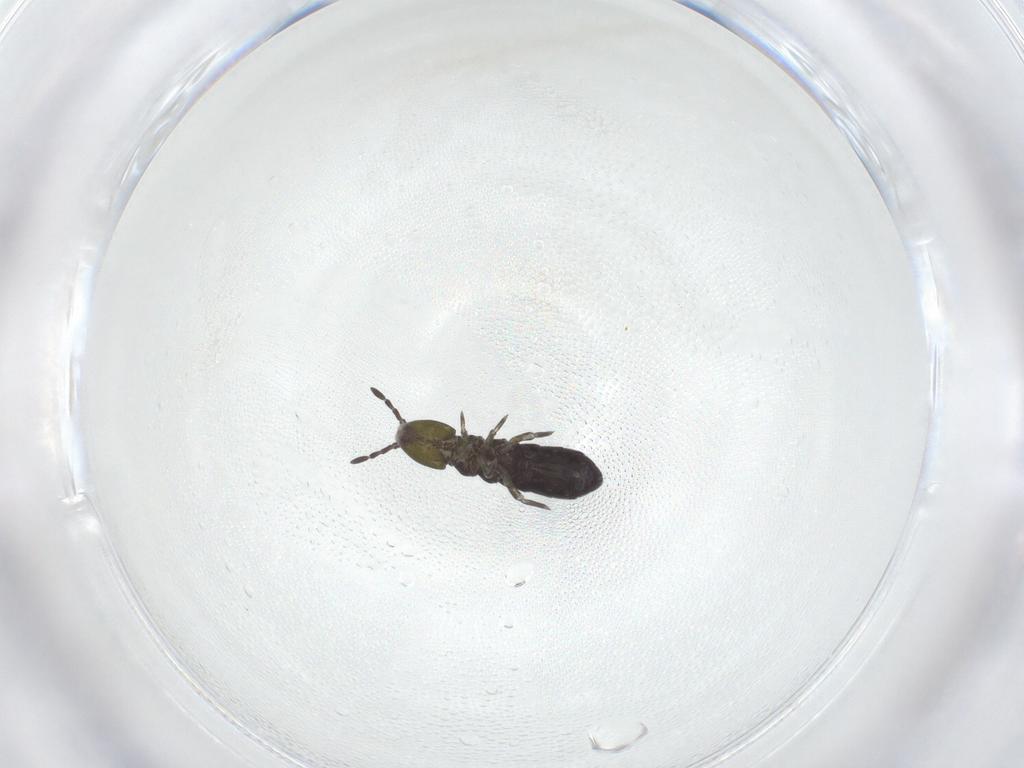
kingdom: Animalia
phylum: Arthropoda
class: Collembola
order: Entomobryomorpha
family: Isotomidae
